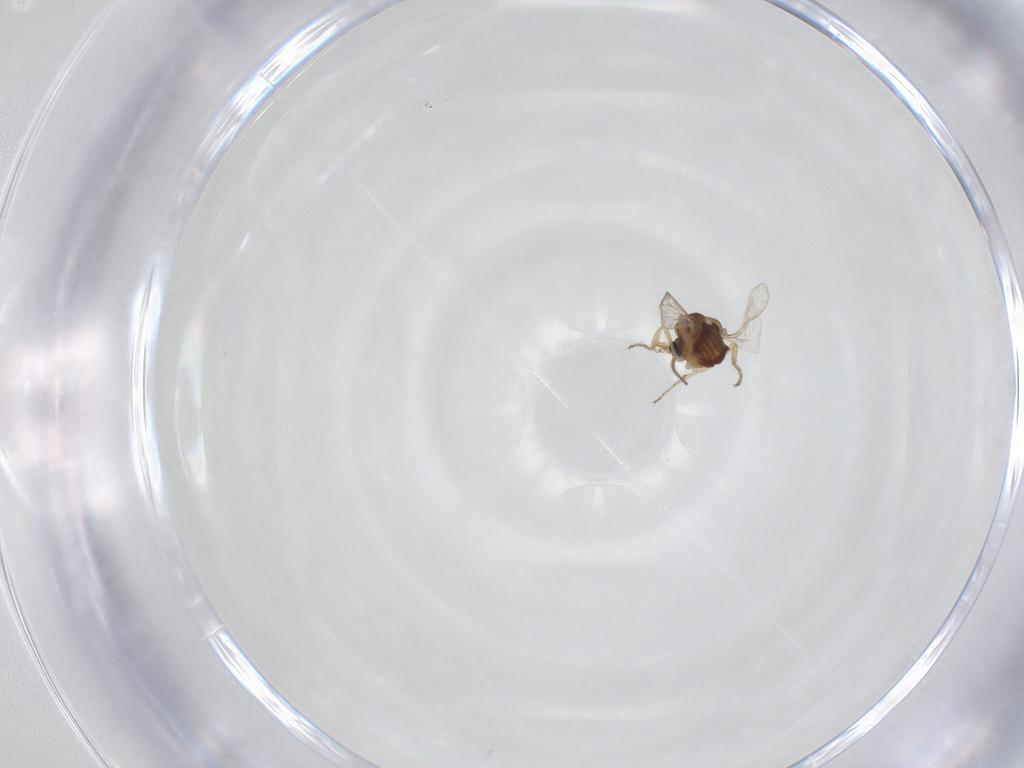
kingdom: Animalia
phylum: Arthropoda
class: Insecta
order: Diptera
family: Ceratopogonidae
